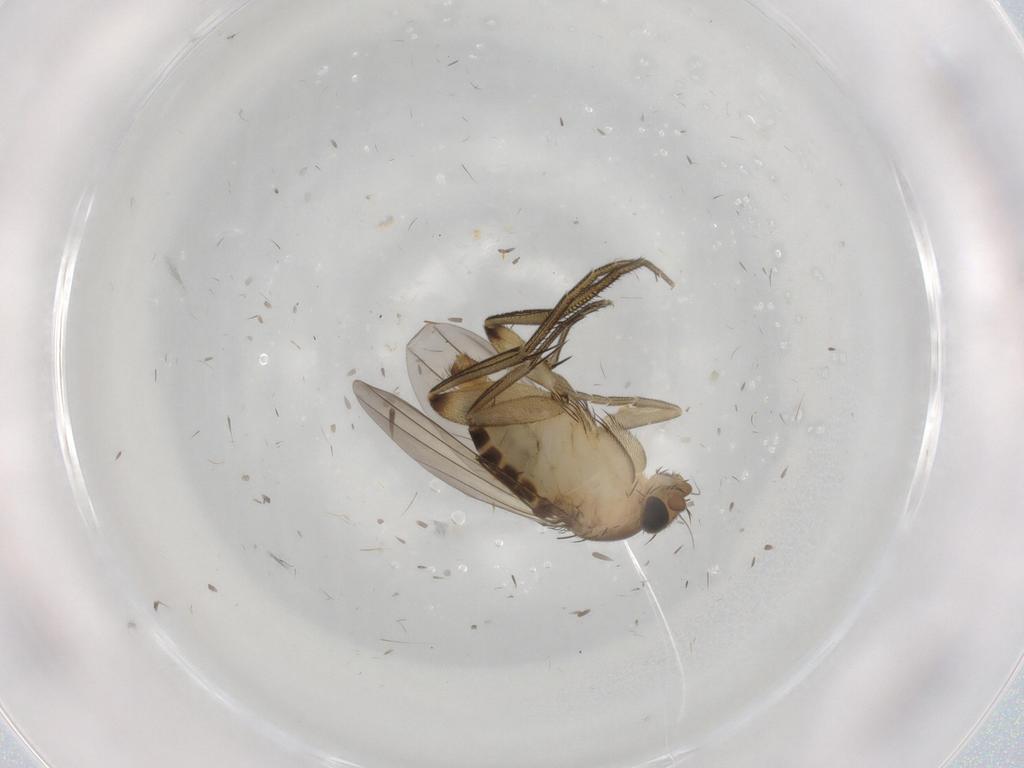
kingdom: Animalia
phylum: Arthropoda
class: Insecta
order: Diptera
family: Phoridae
